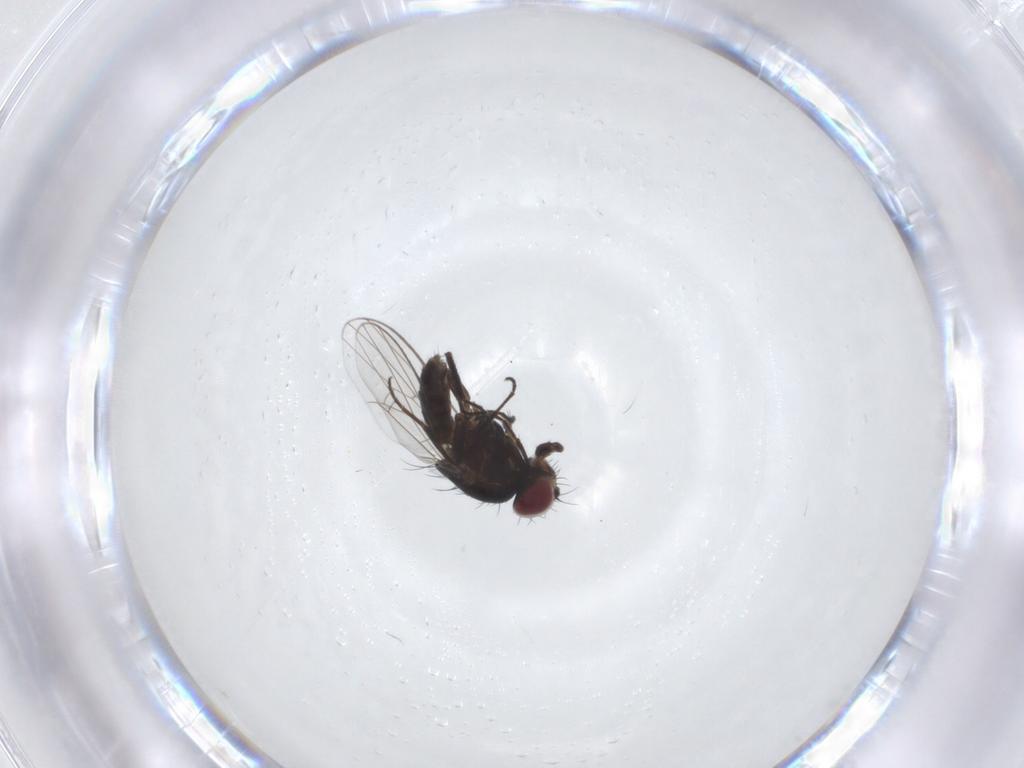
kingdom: Animalia
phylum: Arthropoda
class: Insecta
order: Diptera
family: Carnidae
